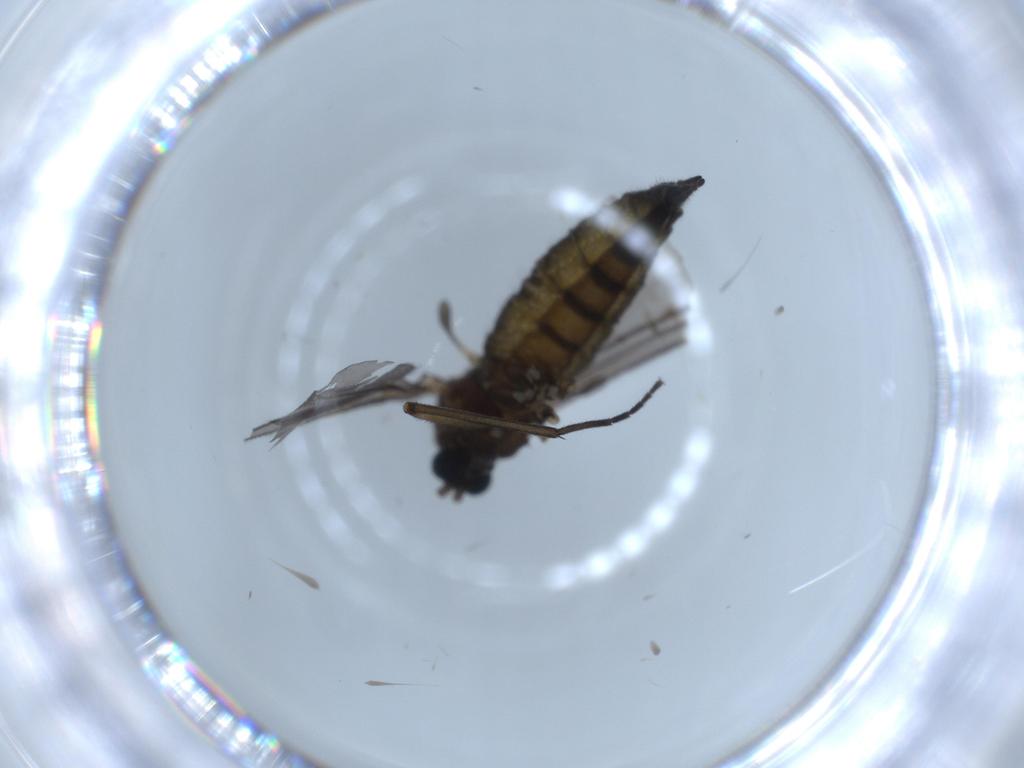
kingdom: Animalia
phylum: Arthropoda
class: Insecta
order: Diptera
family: Sciaridae
